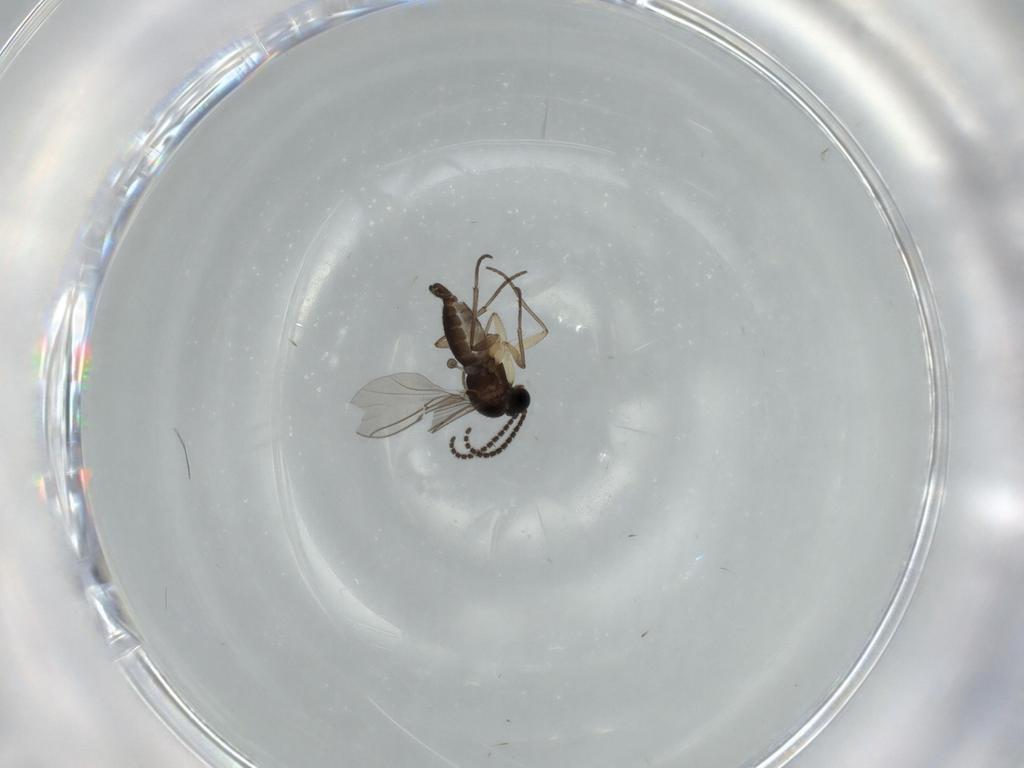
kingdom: Animalia
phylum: Arthropoda
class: Insecta
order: Diptera
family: Sciaridae
